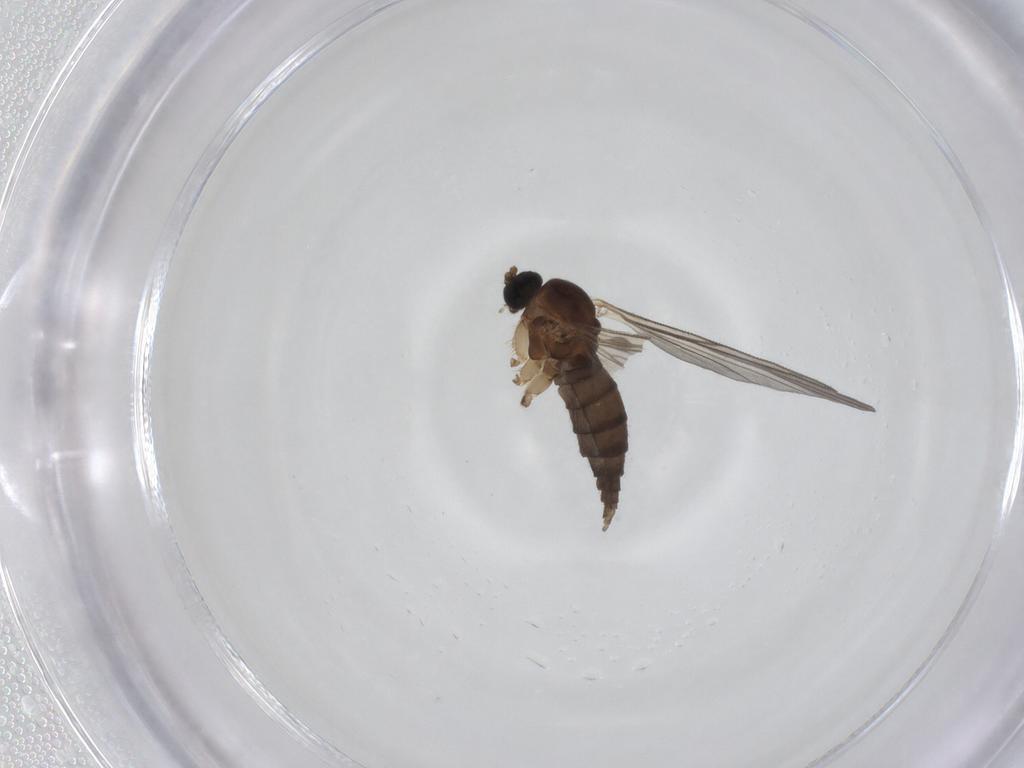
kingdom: Animalia
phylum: Arthropoda
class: Insecta
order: Diptera
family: Sciaridae
